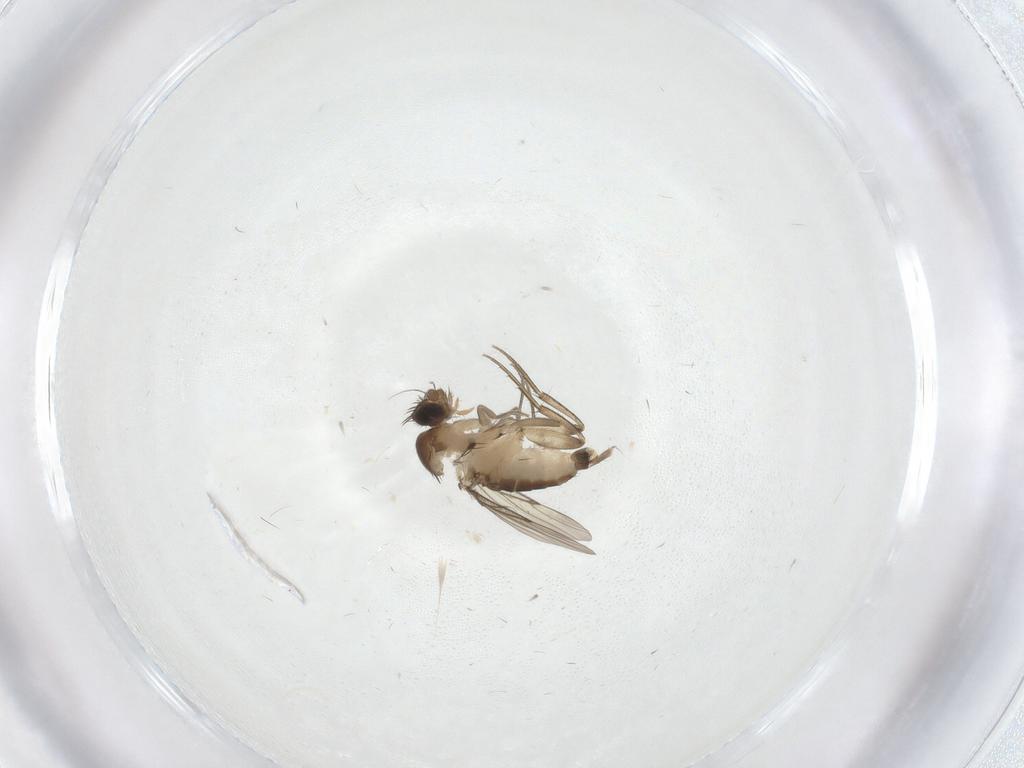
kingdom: Animalia
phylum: Arthropoda
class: Insecta
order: Diptera
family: Phoridae
